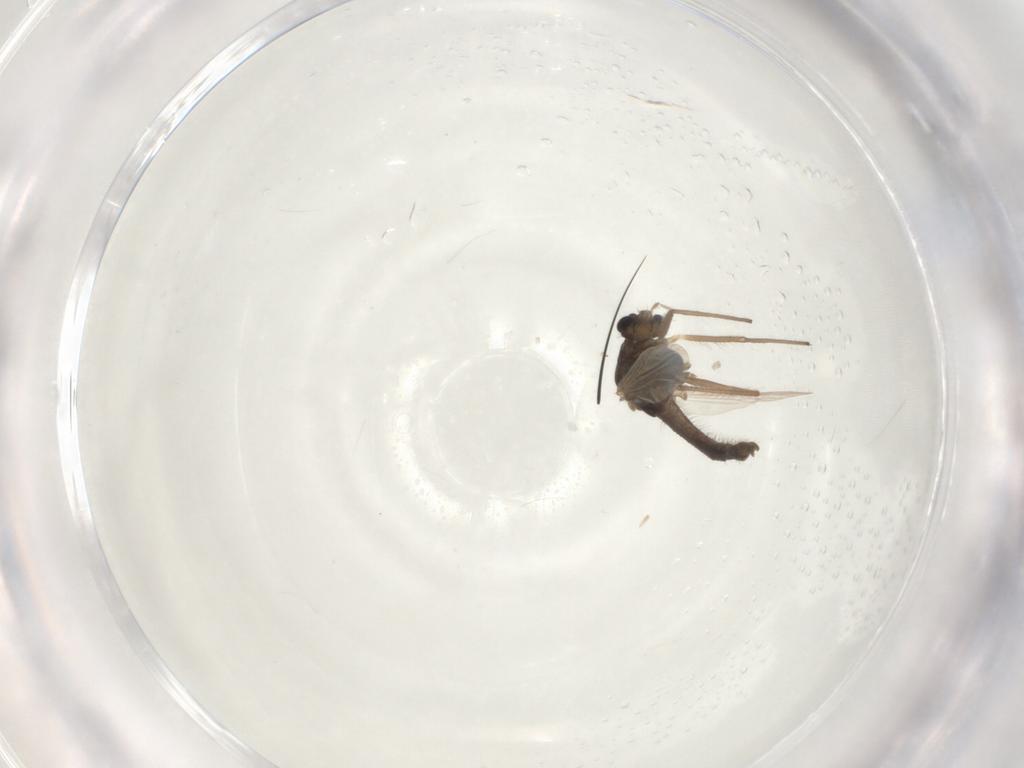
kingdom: Animalia
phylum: Arthropoda
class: Insecta
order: Diptera
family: Chironomidae
